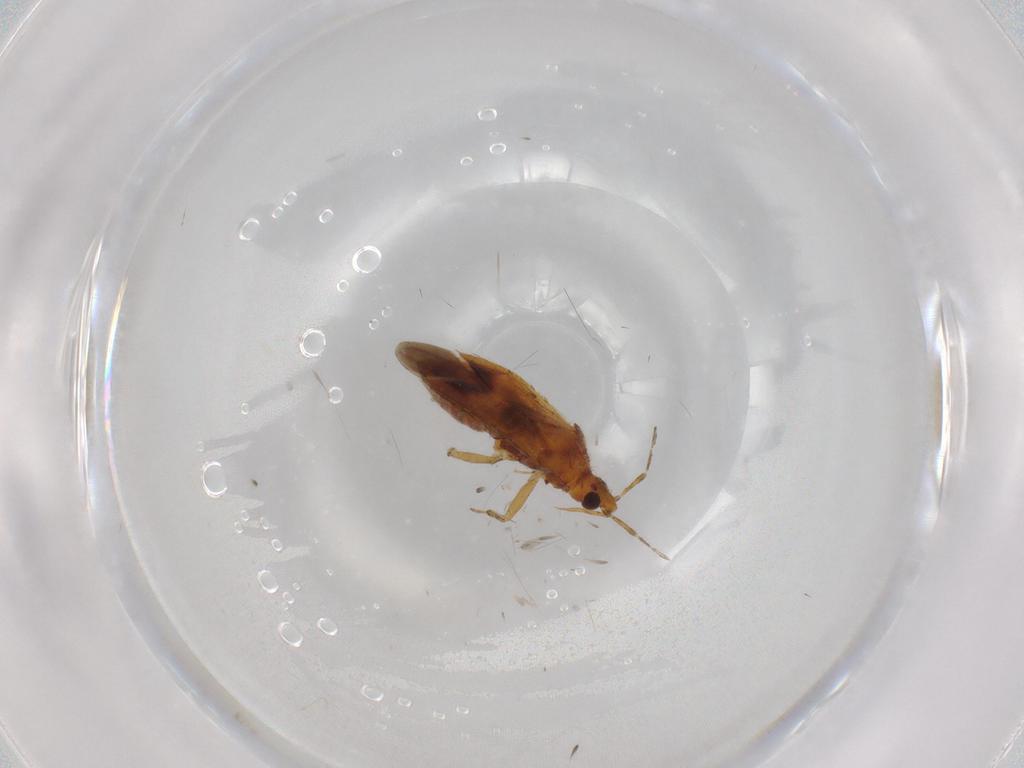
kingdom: Animalia
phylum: Arthropoda
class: Insecta
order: Hemiptera
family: Anthocoridae
